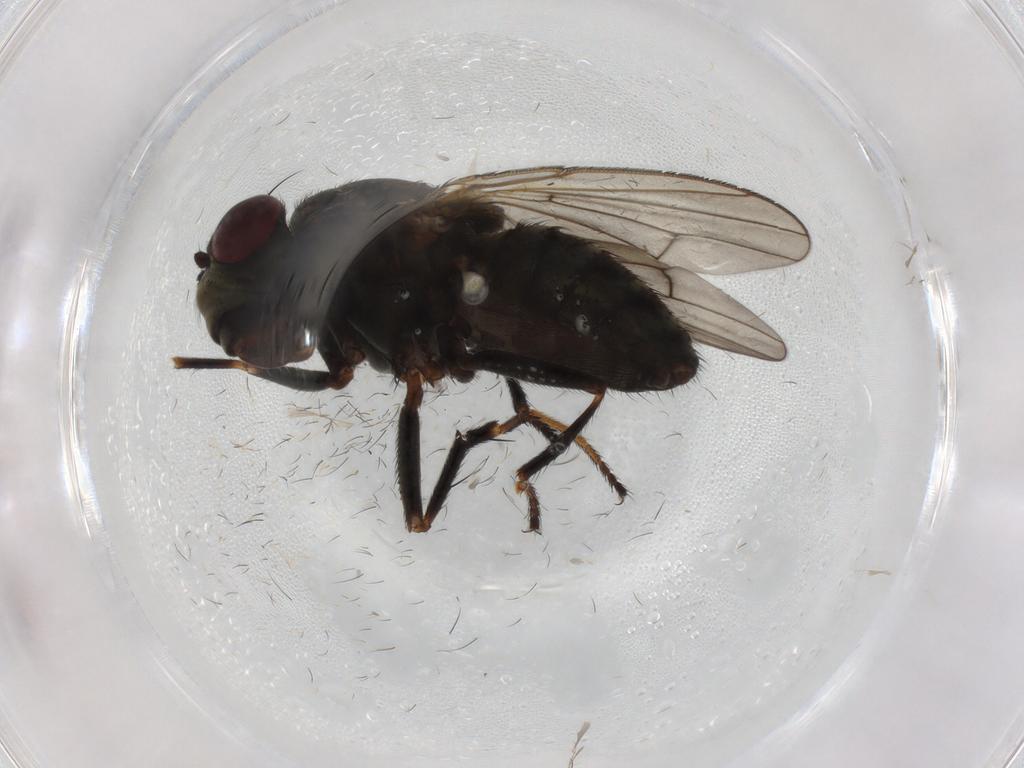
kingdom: Animalia
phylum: Arthropoda
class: Insecta
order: Diptera
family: Ephydridae
